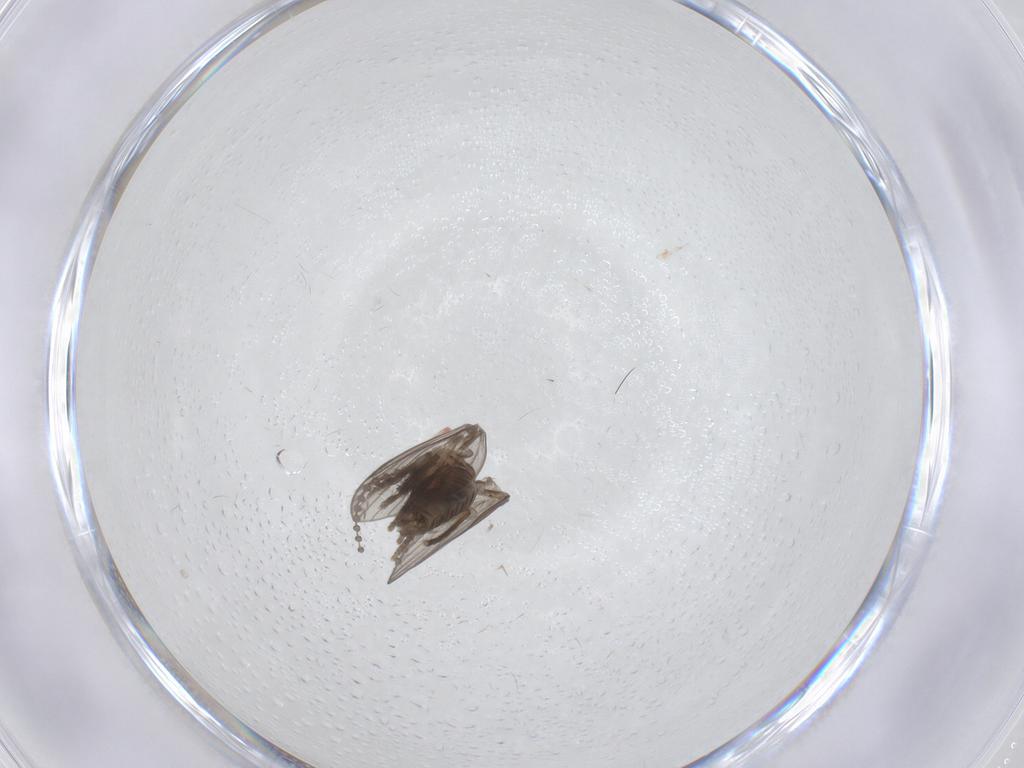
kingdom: Animalia
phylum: Arthropoda
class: Insecta
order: Diptera
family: Psychodidae
